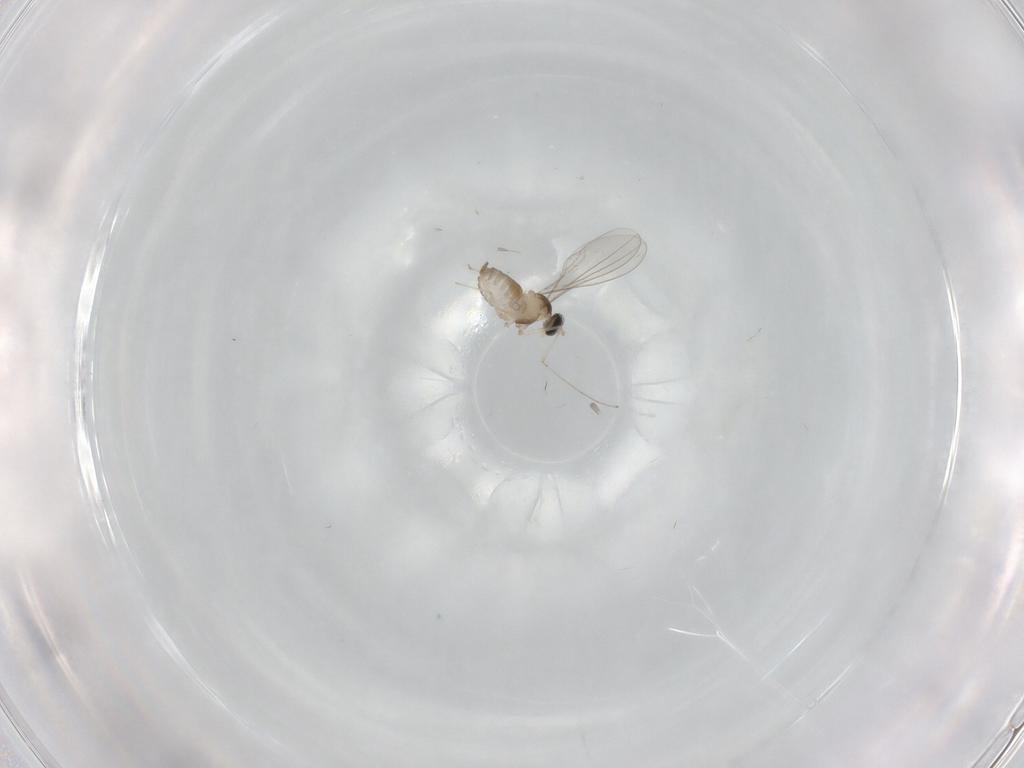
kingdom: Animalia
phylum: Arthropoda
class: Insecta
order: Diptera
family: Cecidomyiidae
